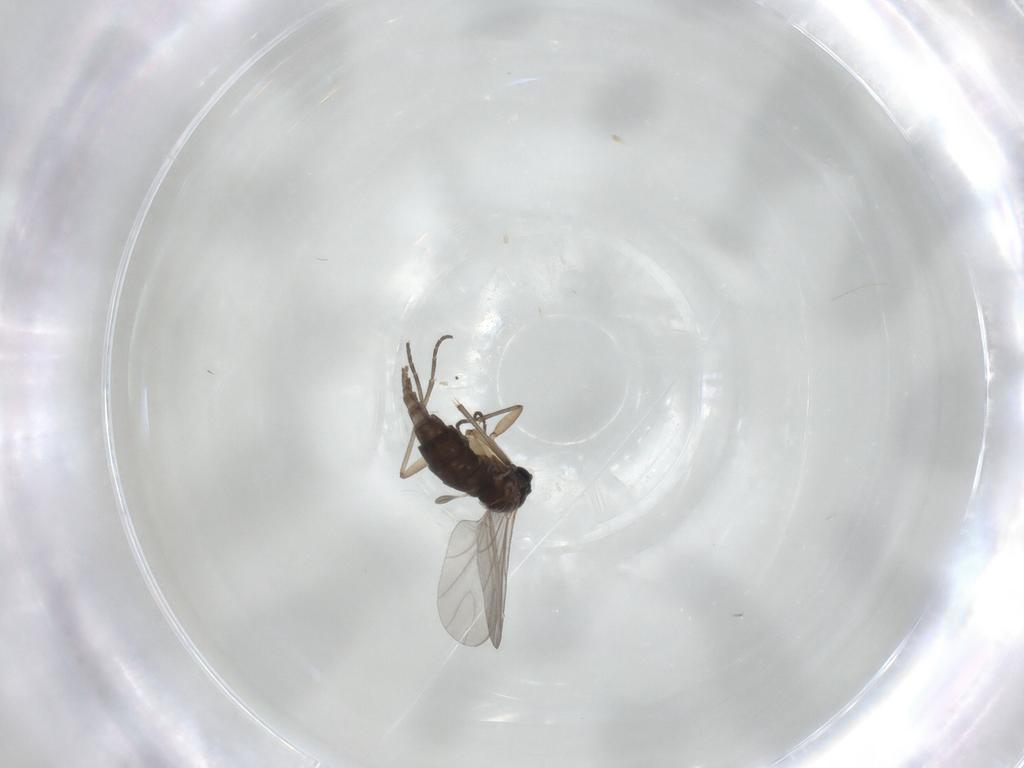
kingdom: Animalia
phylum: Arthropoda
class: Insecta
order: Diptera
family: Sciaridae
